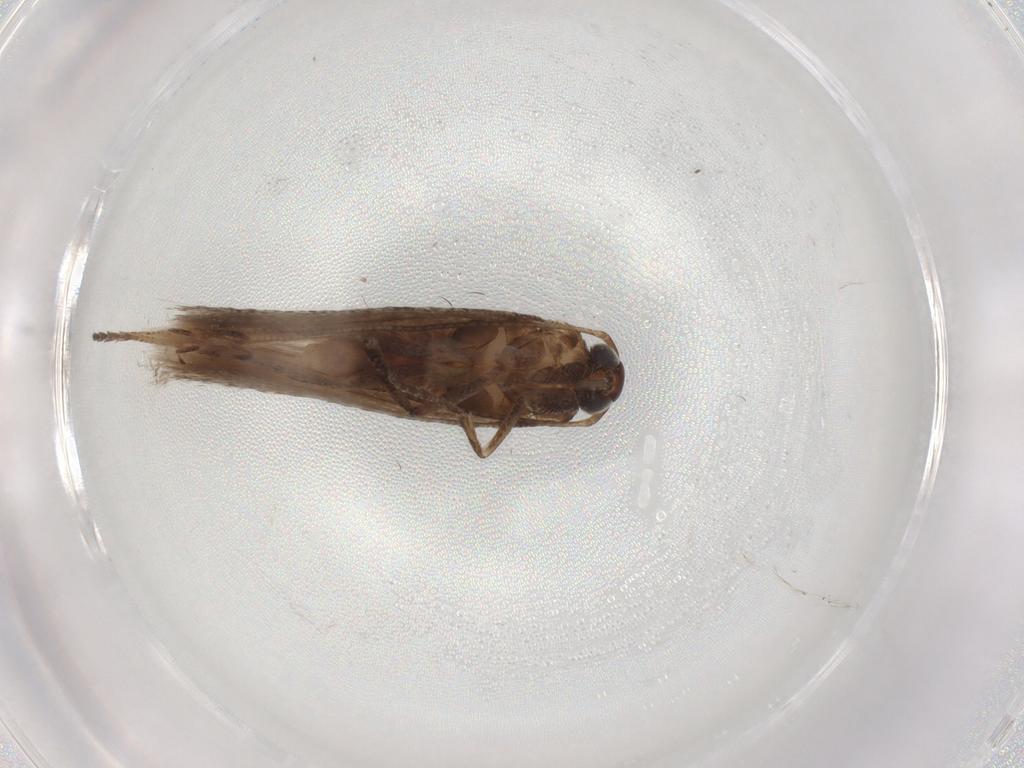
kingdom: Animalia
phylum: Arthropoda
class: Insecta
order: Lepidoptera
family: Gelechiidae
